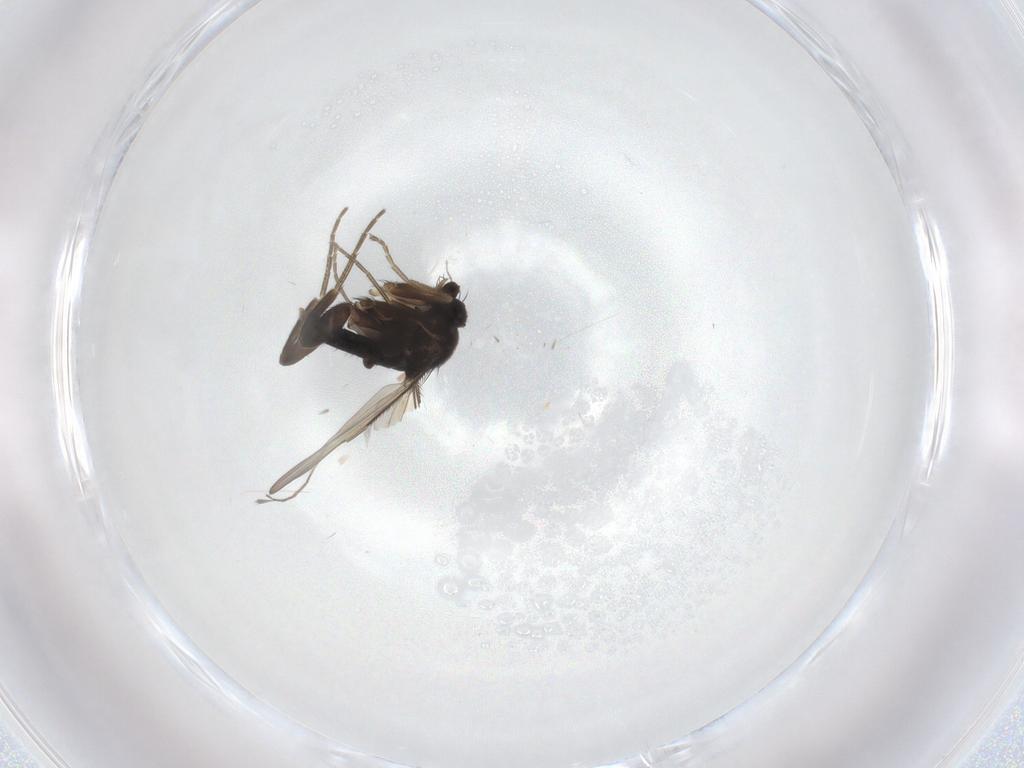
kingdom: Animalia
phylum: Arthropoda
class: Insecta
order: Diptera
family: Phoridae
